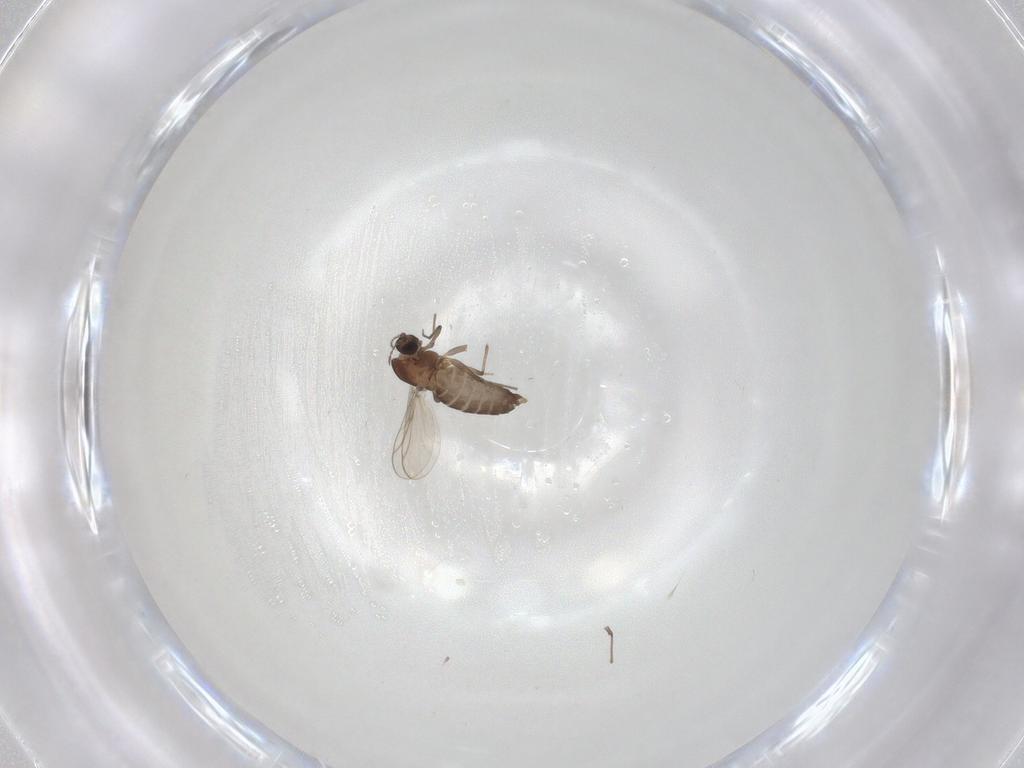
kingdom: Animalia
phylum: Arthropoda
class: Insecta
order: Diptera
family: Chironomidae
